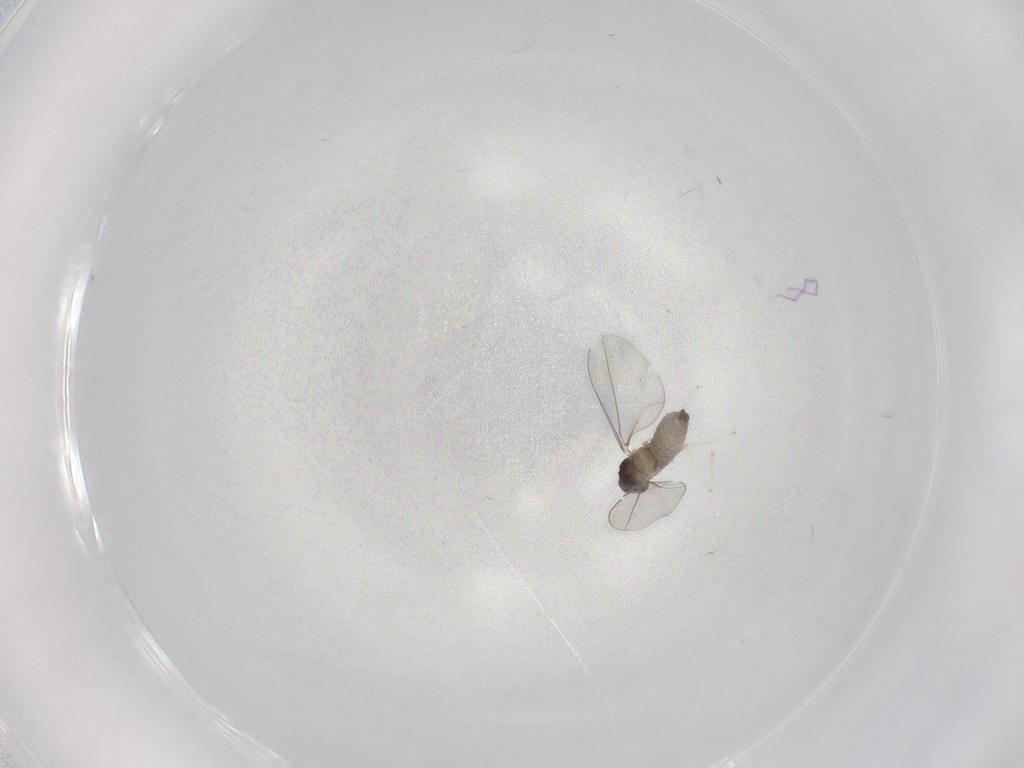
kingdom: Animalia
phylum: Arthropoda
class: Insecta
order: Diptera
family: Cecidomyiidae
